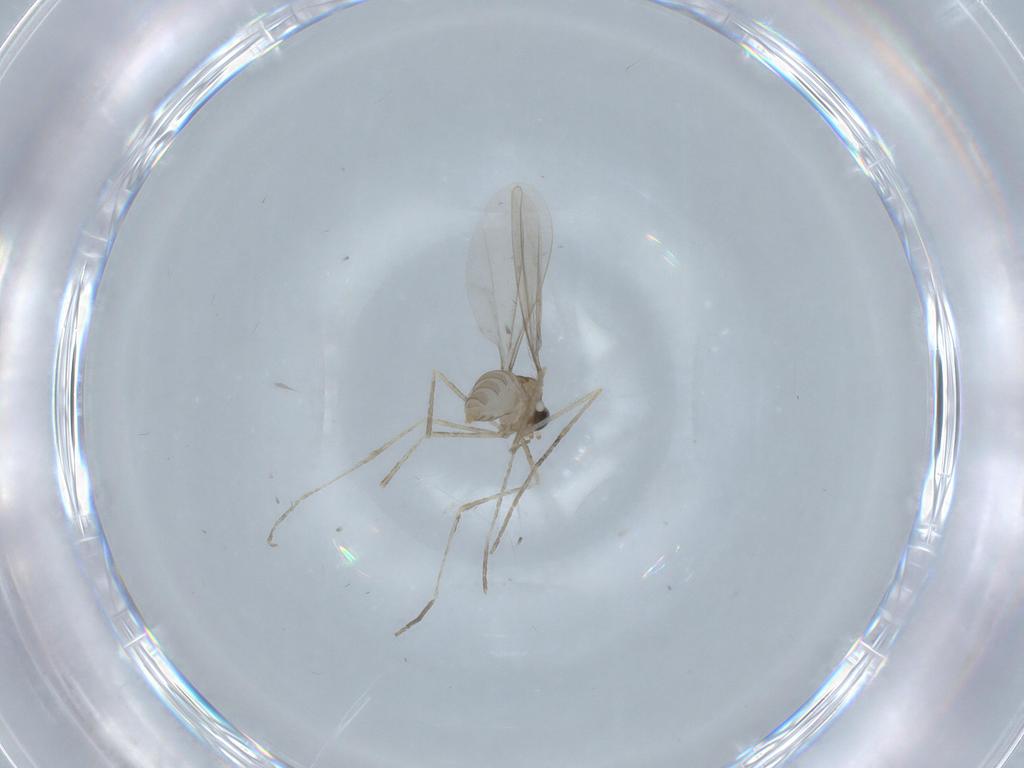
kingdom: Animalia
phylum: Arthropoda
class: Insecta
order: Diptera
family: Cecidomyiidae
